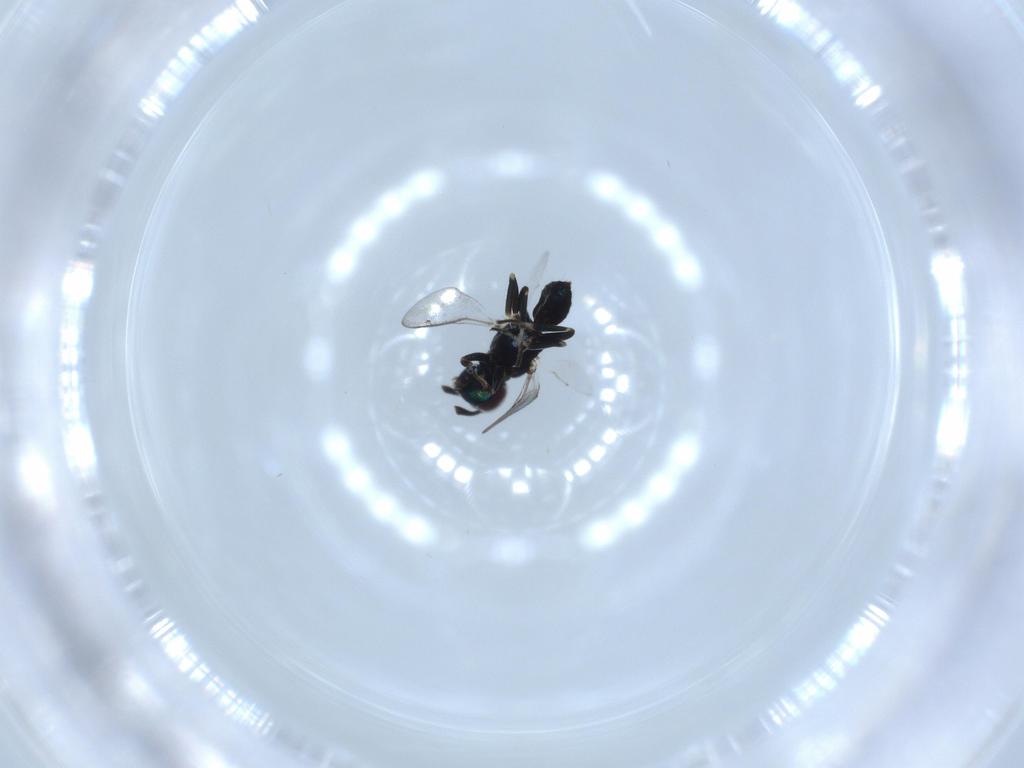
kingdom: Animalia
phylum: Arthropoda
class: Insecta
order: Hymenoptera
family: Eupelmidae
